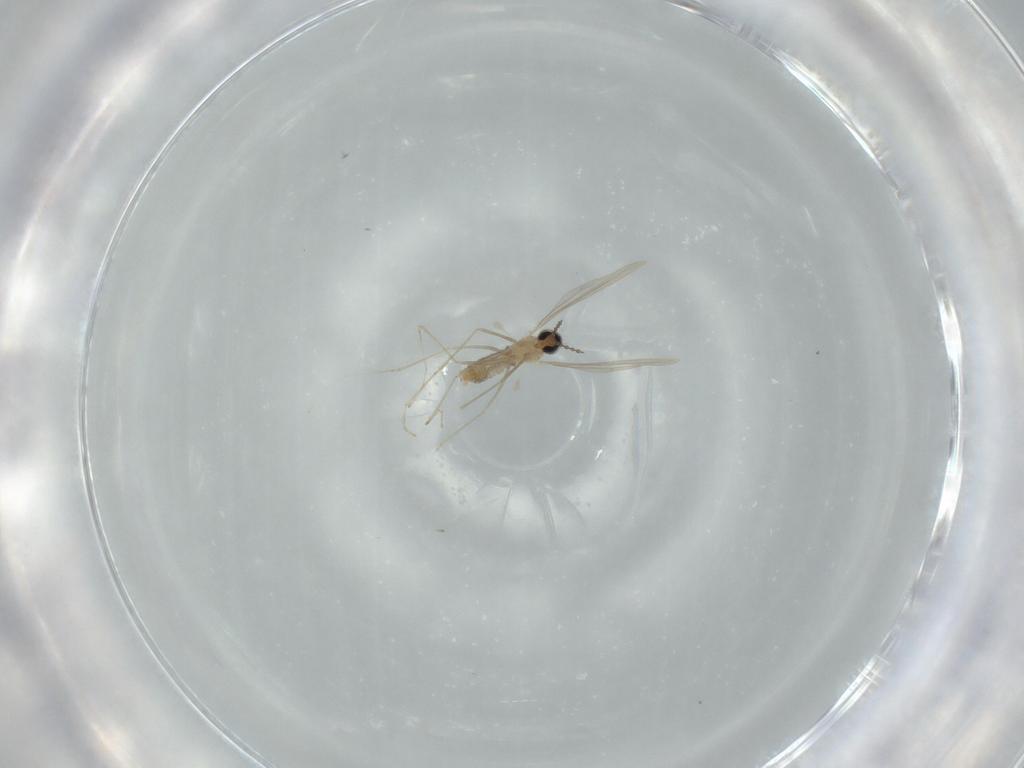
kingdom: Animalia
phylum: Arthropoda
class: Insecta
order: Diptera
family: Cecidomyiidae
